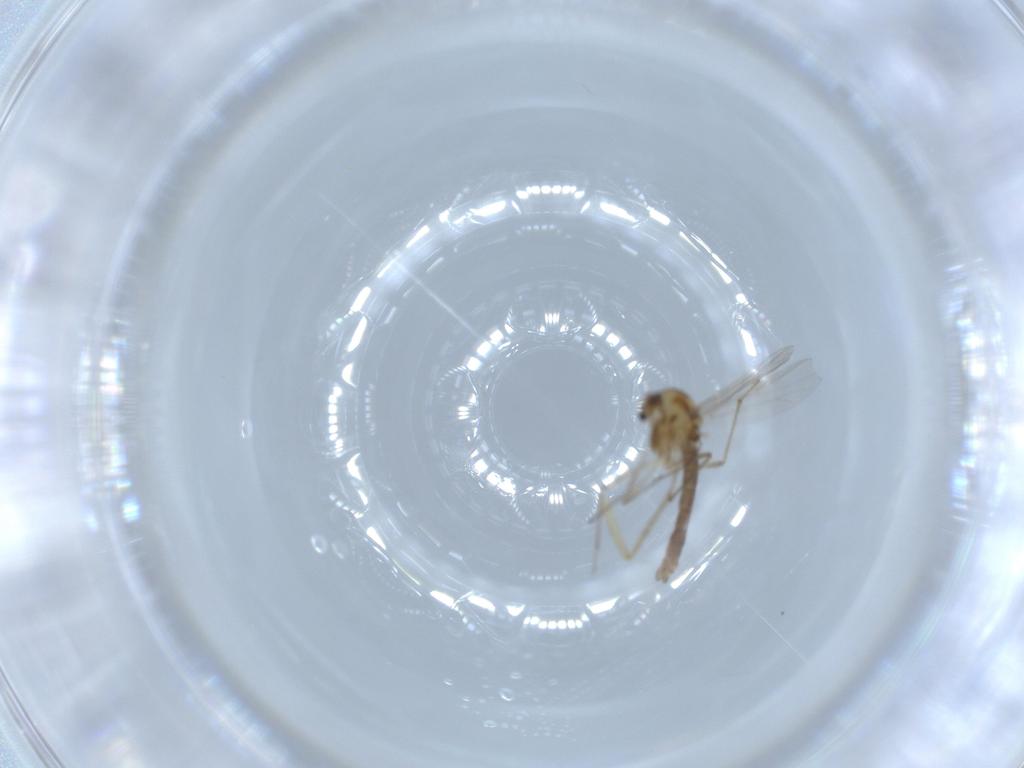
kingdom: Animalia
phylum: Arthropoda
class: Insecta
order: Diptera
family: Chironomidae
